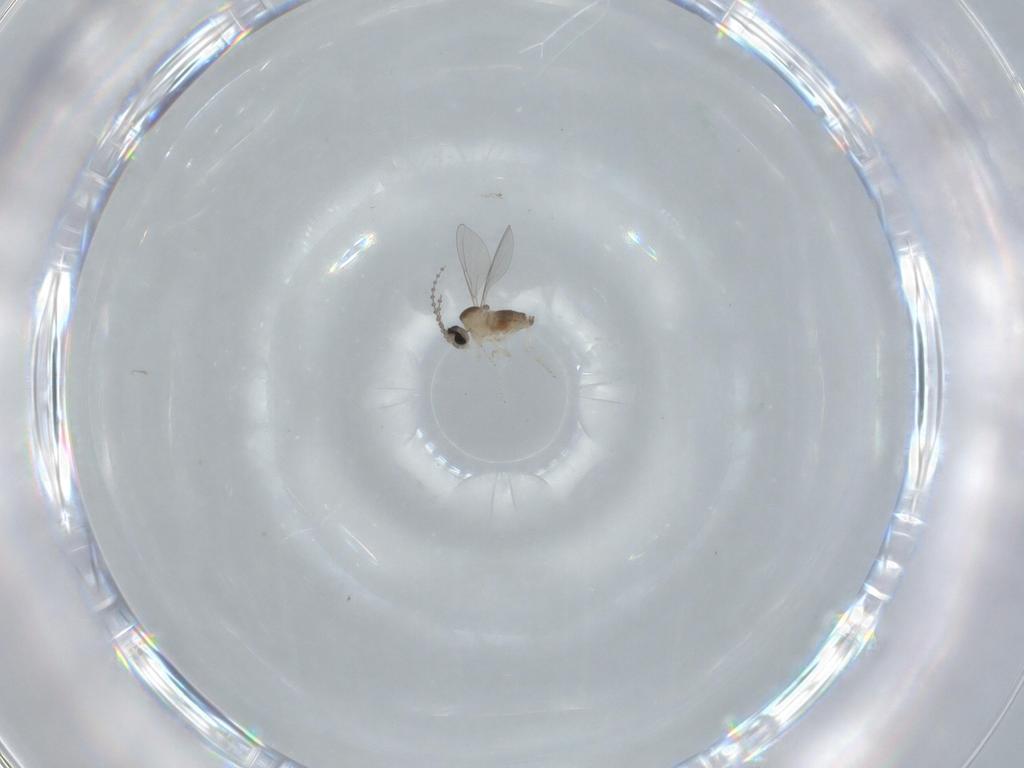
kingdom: Animalia
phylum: Arthropoda
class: Insecta
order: Diptera
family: Cecidomyiidae
